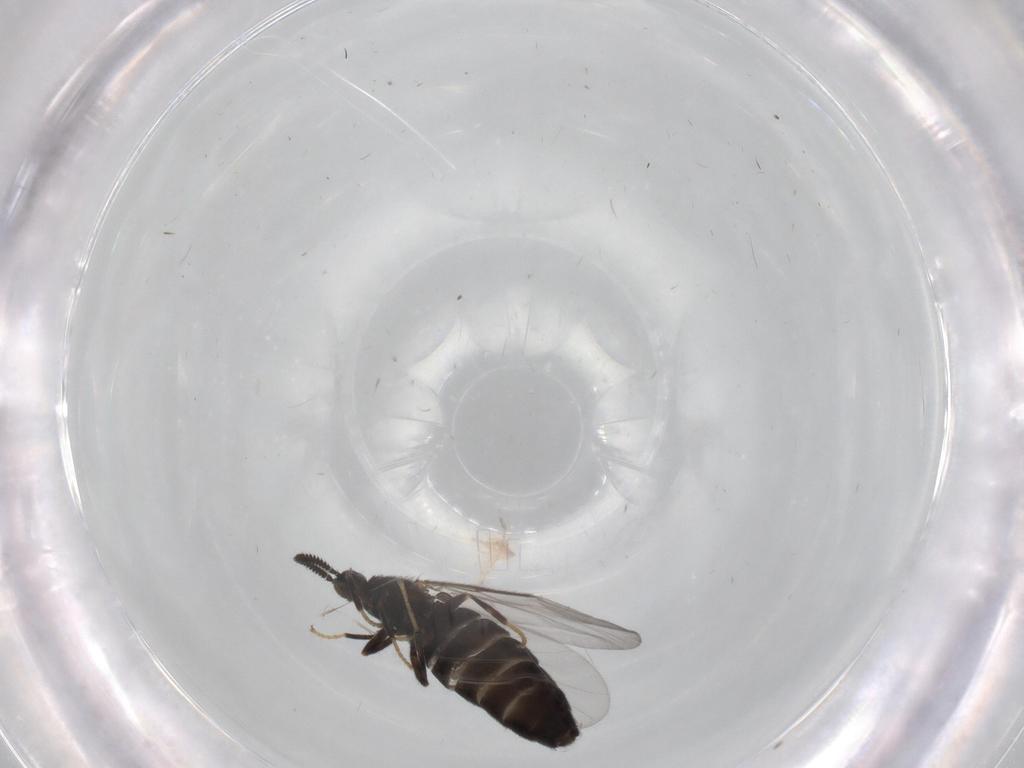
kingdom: Animalia
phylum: Arthropoda
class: Insecta
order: Diptera
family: Scatopsidae
